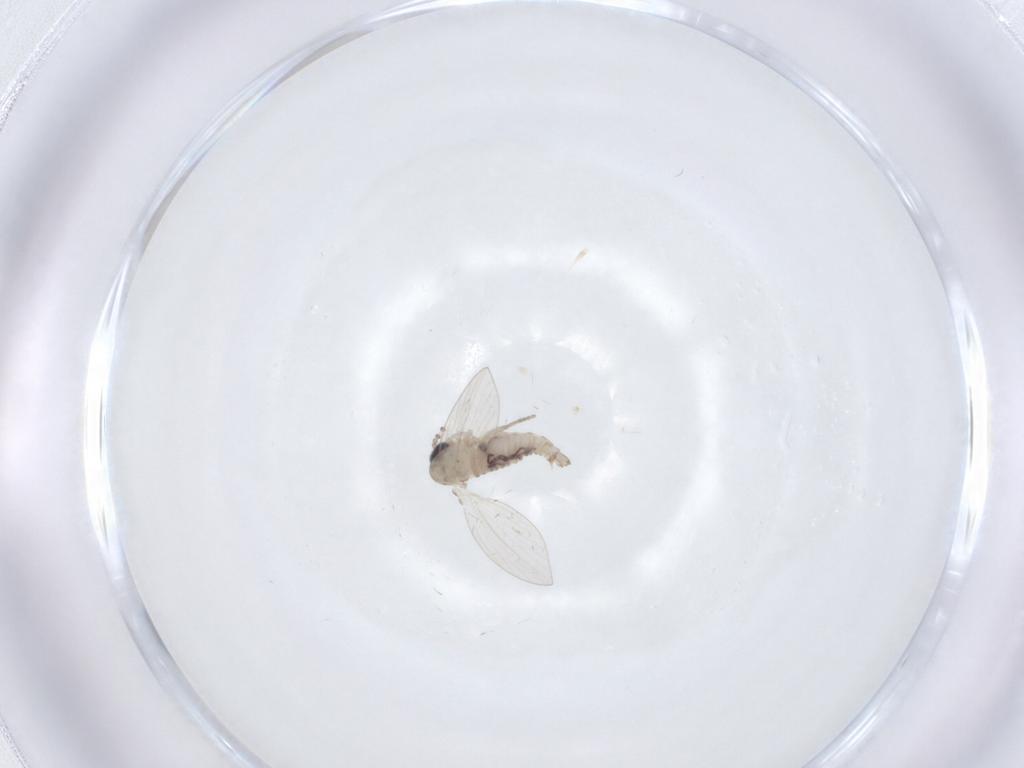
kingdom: Animalia
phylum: Arthropoda
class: Insecta
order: Diptera
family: Psychodidae
